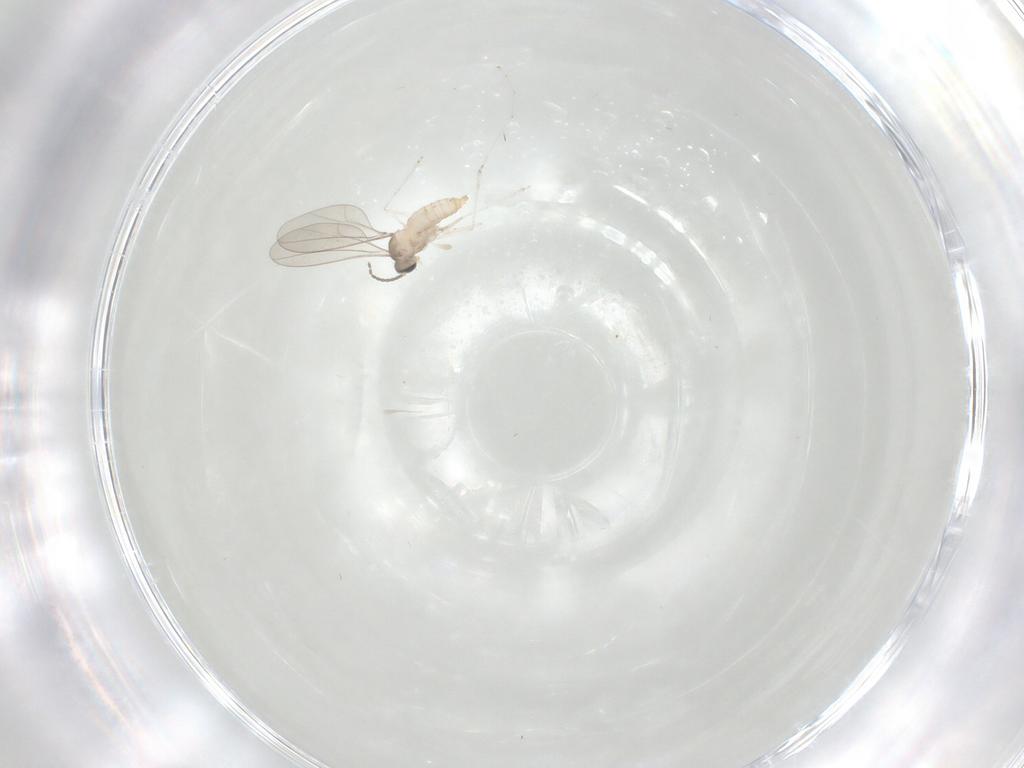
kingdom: Animalia
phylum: Arthropoda
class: Insecta
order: Diptera
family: Cecidomyiidae
